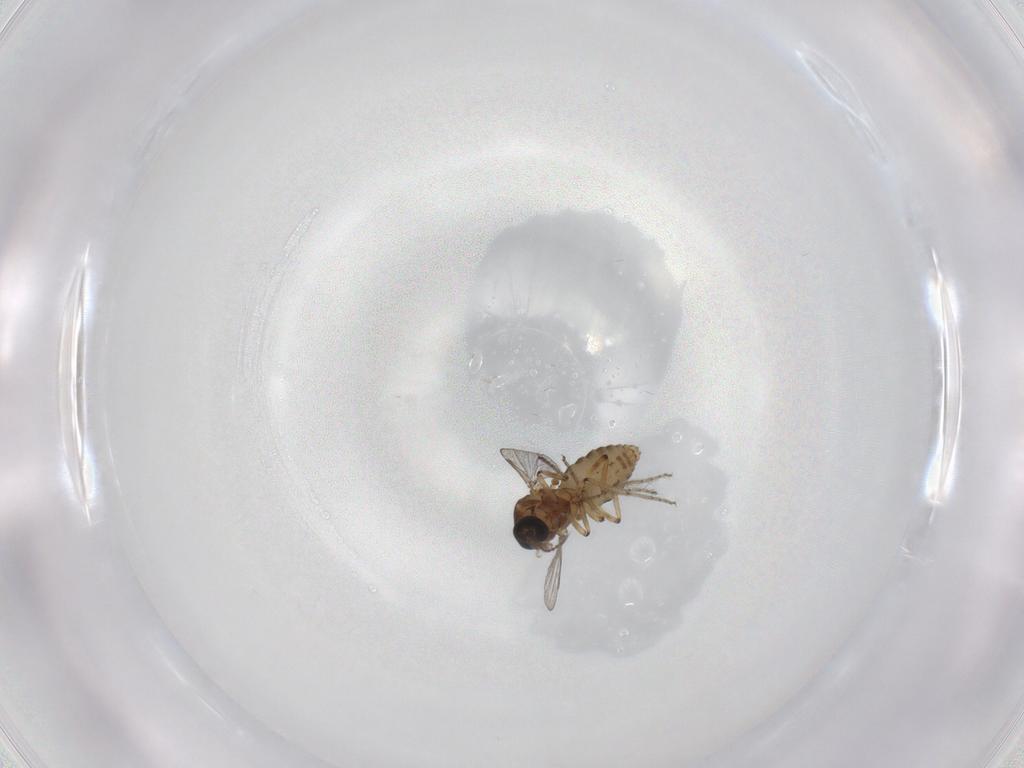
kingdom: Animalia
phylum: Arthropoda
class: Insecta
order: Diptera
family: Ceratopogonidae
